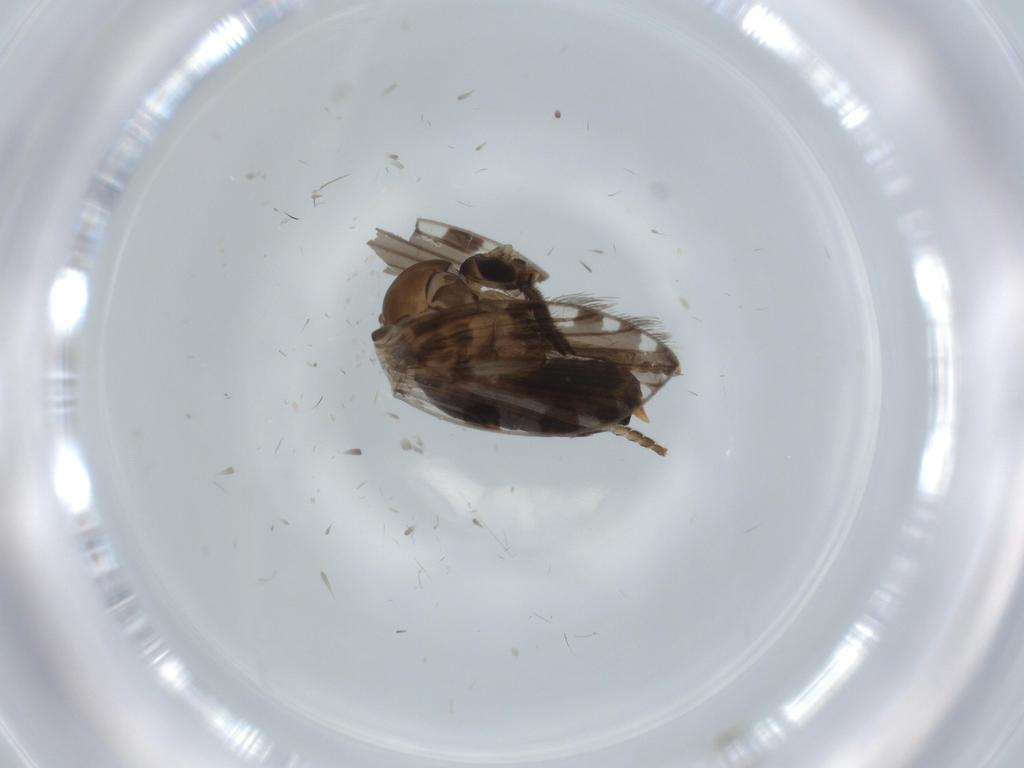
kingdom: Animalia
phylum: Arthropoda
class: Insecta
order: Diptera
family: Psychodidae
